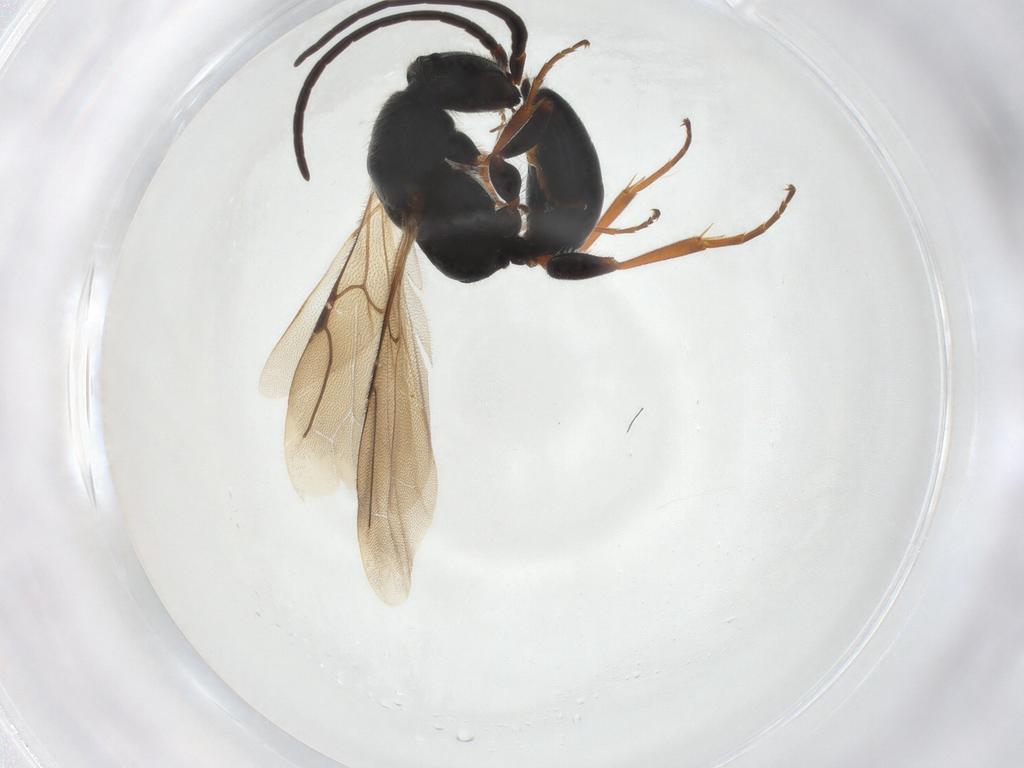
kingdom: Animalia
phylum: Arthropoda
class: Insecta
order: Hymenoptera
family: Bethylidae
